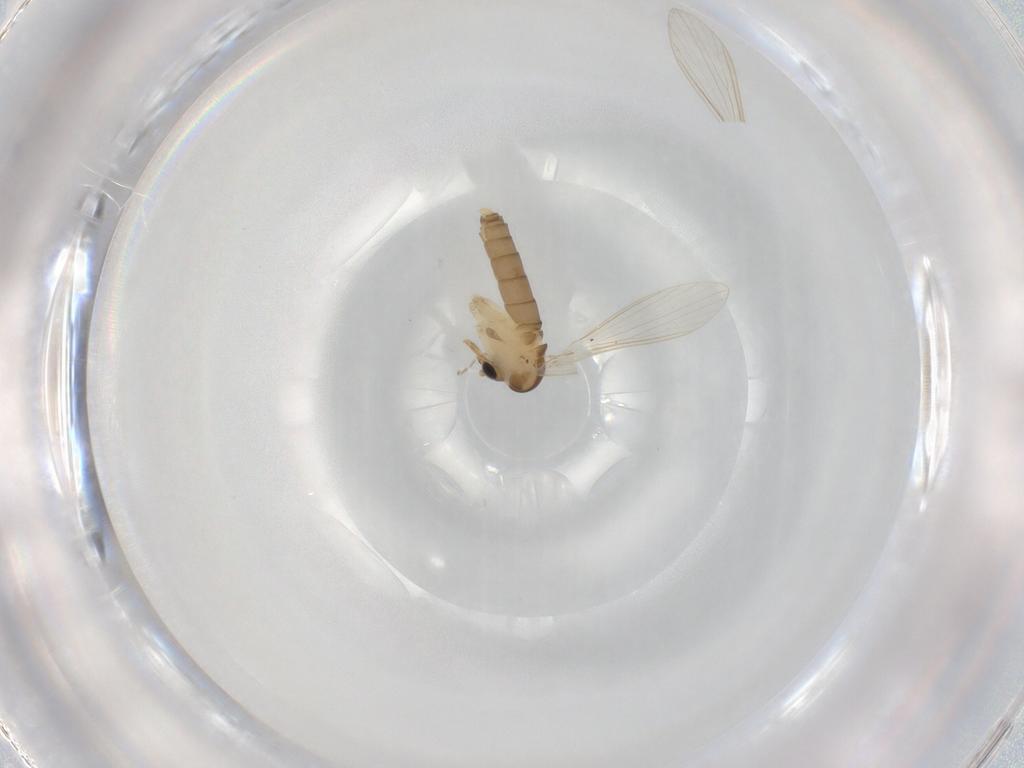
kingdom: Animalia
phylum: Arthropoda
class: Insecta
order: Diptera
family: Psychodidae
